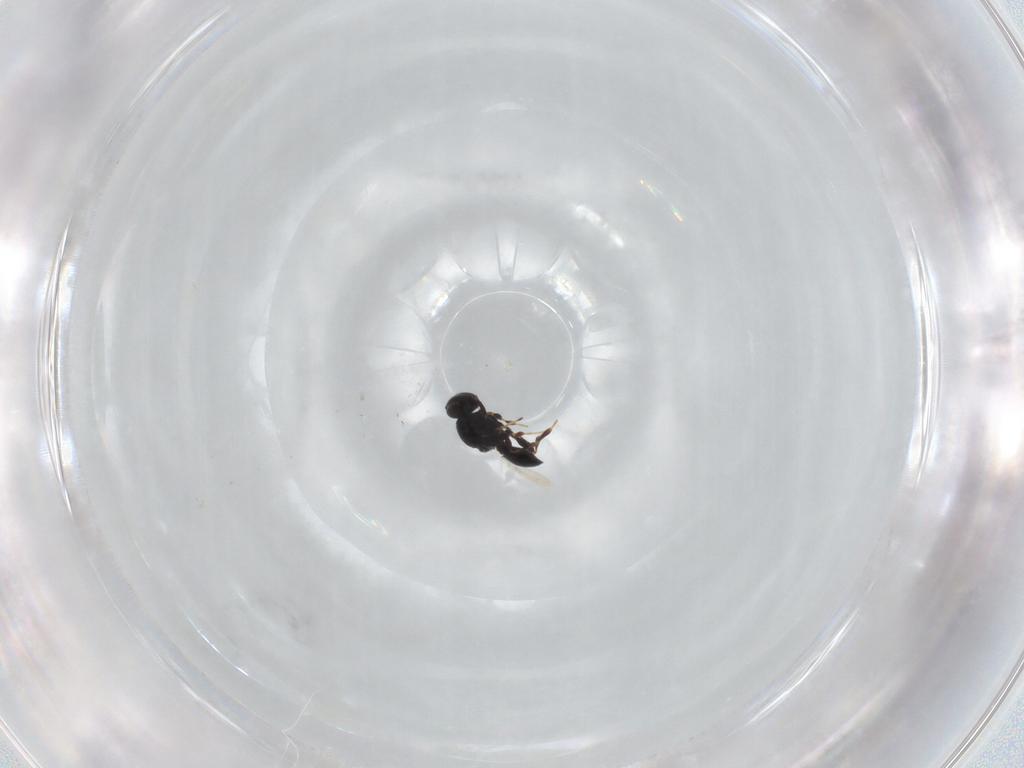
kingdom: Animalia
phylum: Arthropoda
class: Insecta
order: Hymenoptera
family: Platygastridae
